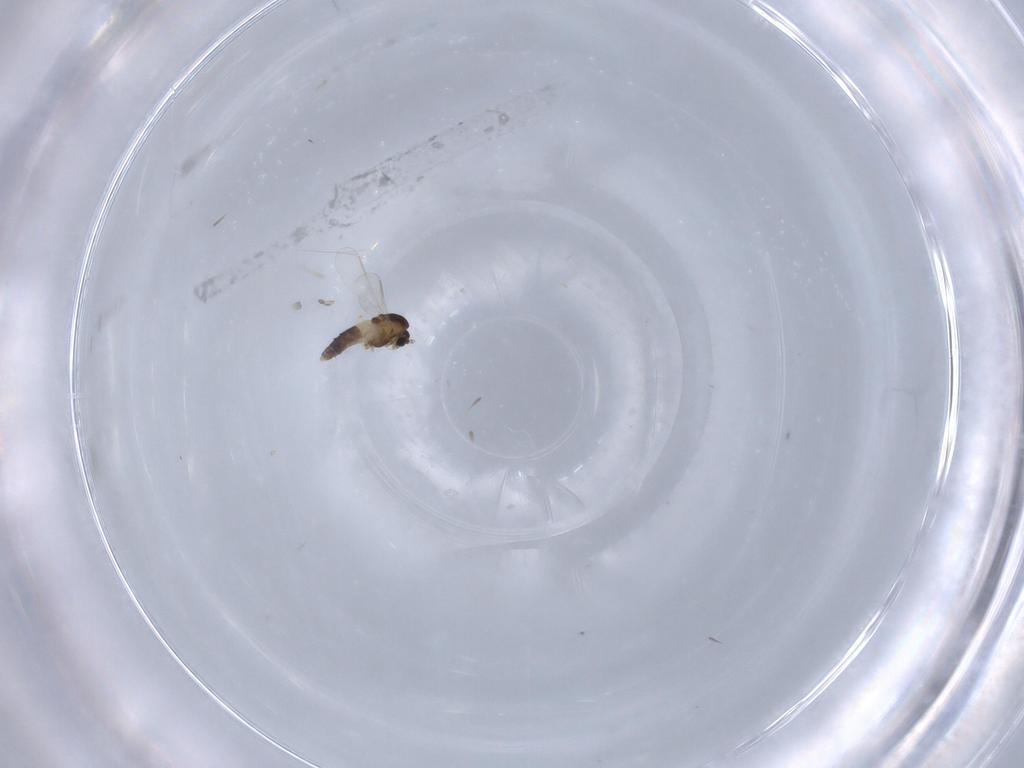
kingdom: Animalia
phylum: Arthropoda
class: Insecta
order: Diptera
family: Chironomidae
